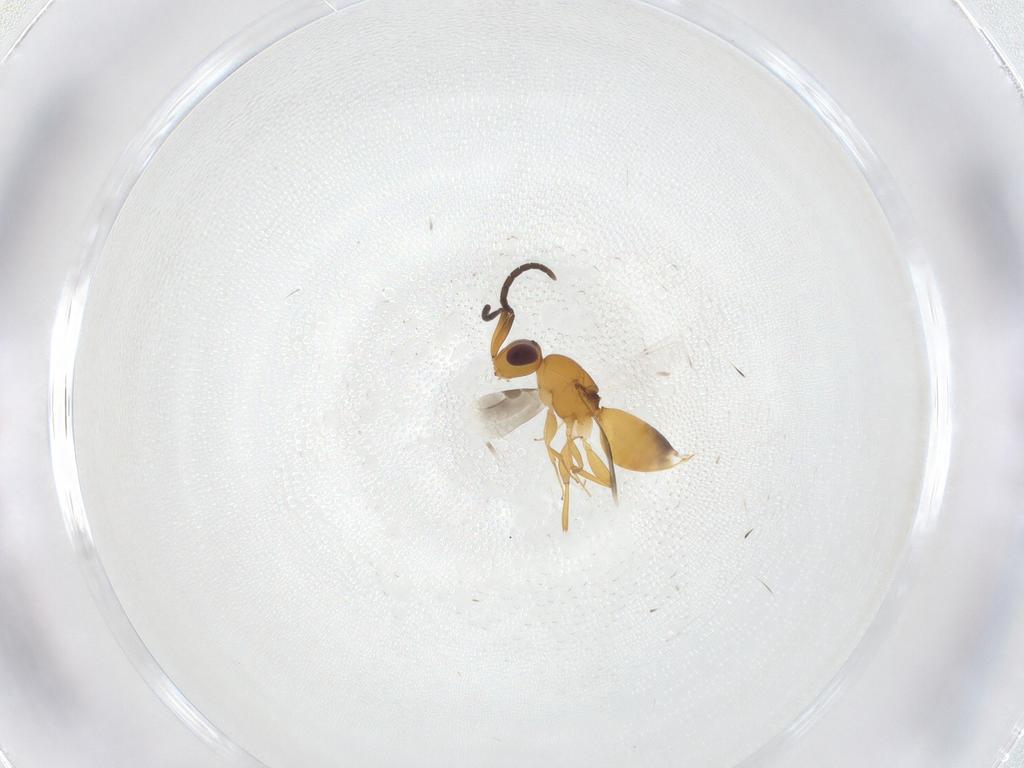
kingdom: Animalia
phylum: Arthropoda
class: Insecta
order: Hymenoptera
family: Megaspilidae
